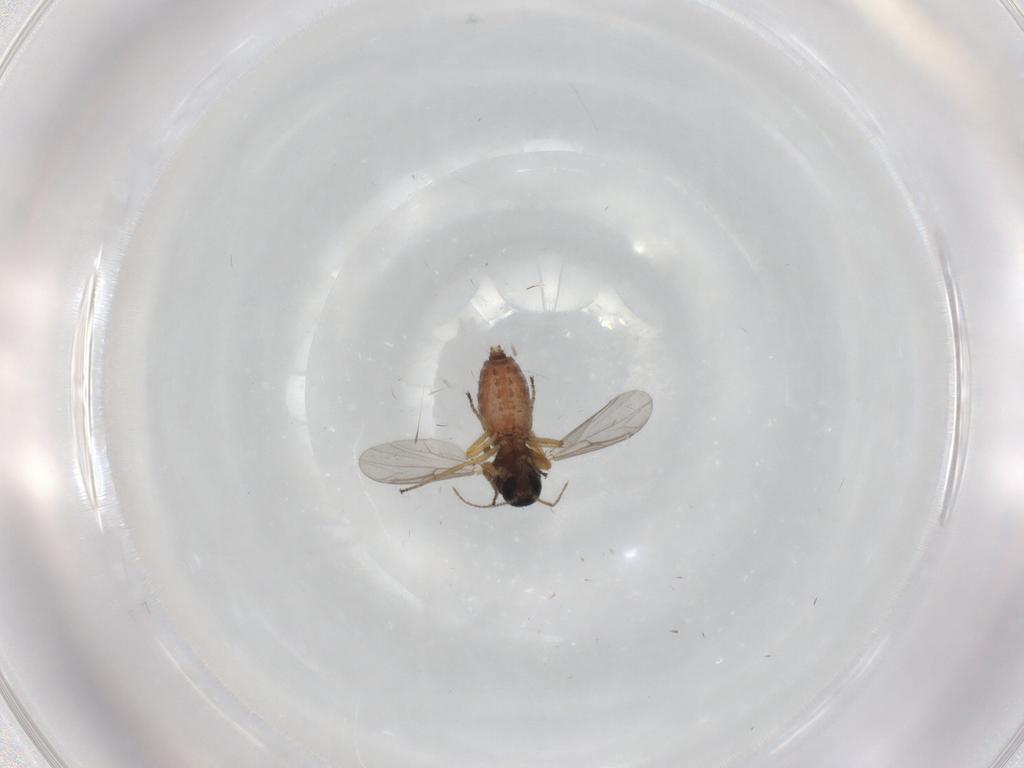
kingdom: Animalia
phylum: Arthropoda
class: Insecta
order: Diptera
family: Ceratopogonidae
